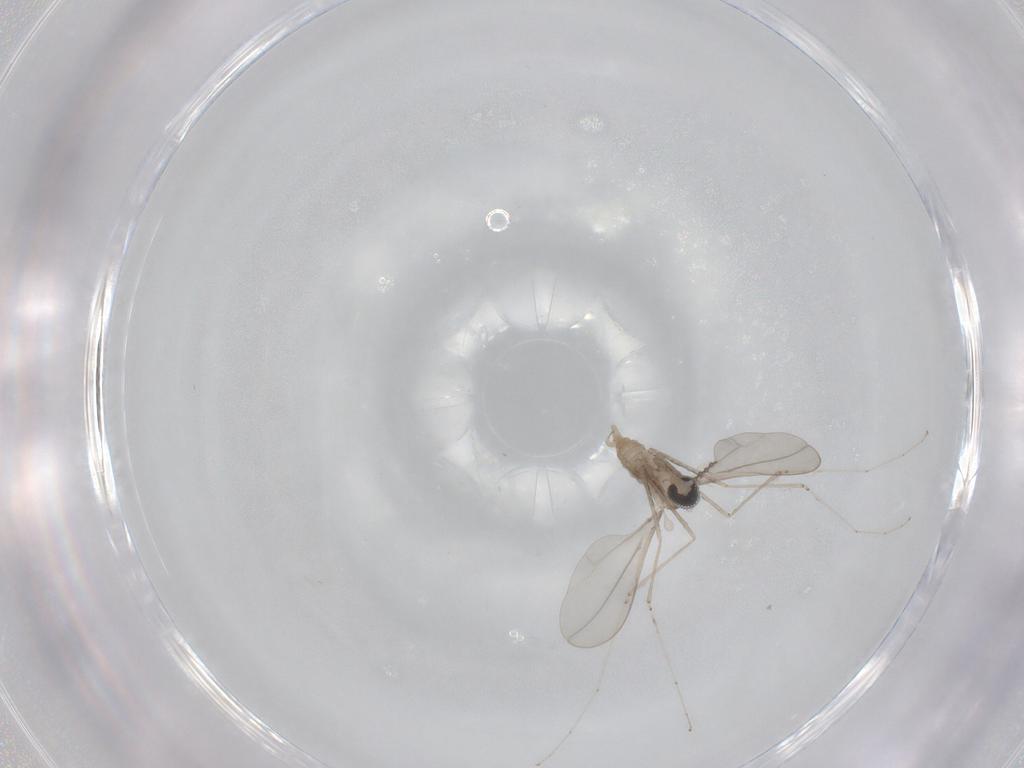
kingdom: Animalia
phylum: Arthropoda
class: Insecta
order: Diptera
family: Cecidomyiidae
